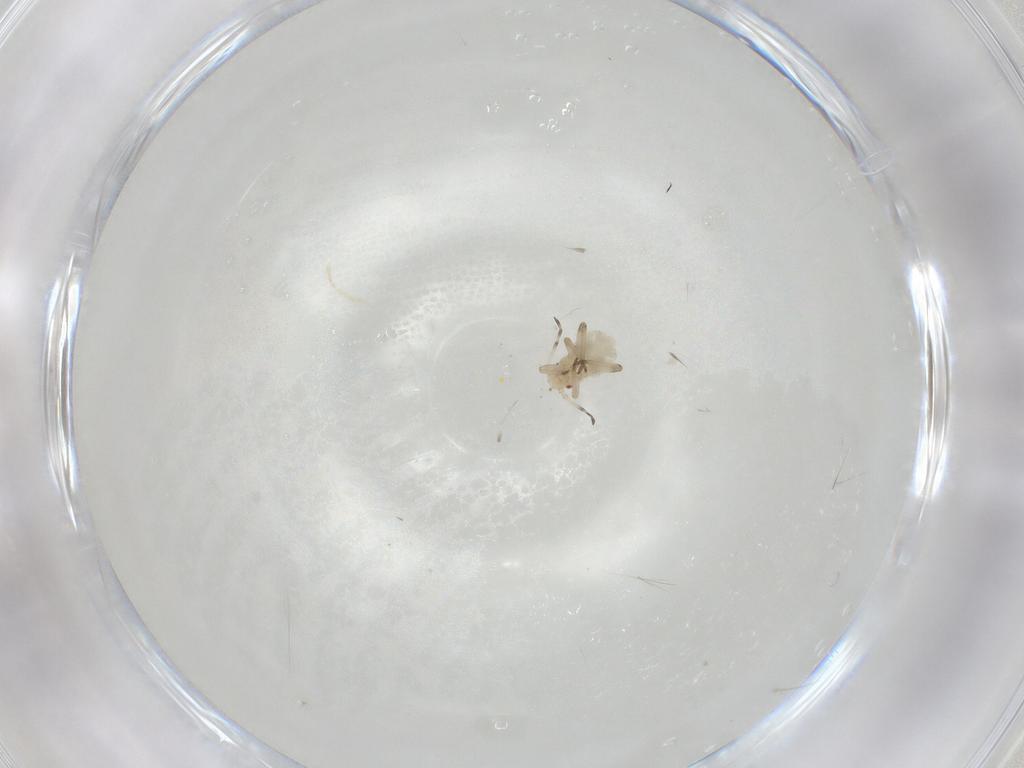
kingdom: Animalia
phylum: Arthropoda
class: Insecta
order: Hemiptera
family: Aphididae
